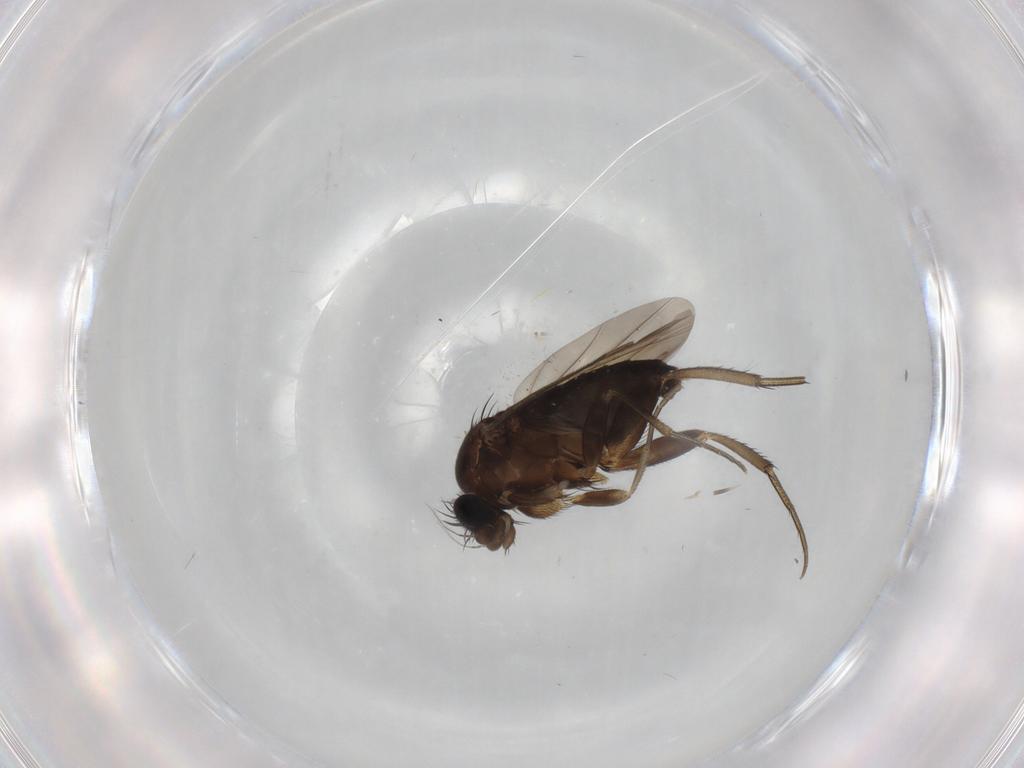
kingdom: Animalia
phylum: Arthropoda
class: Insecta
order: Diptera
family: Phoridae
